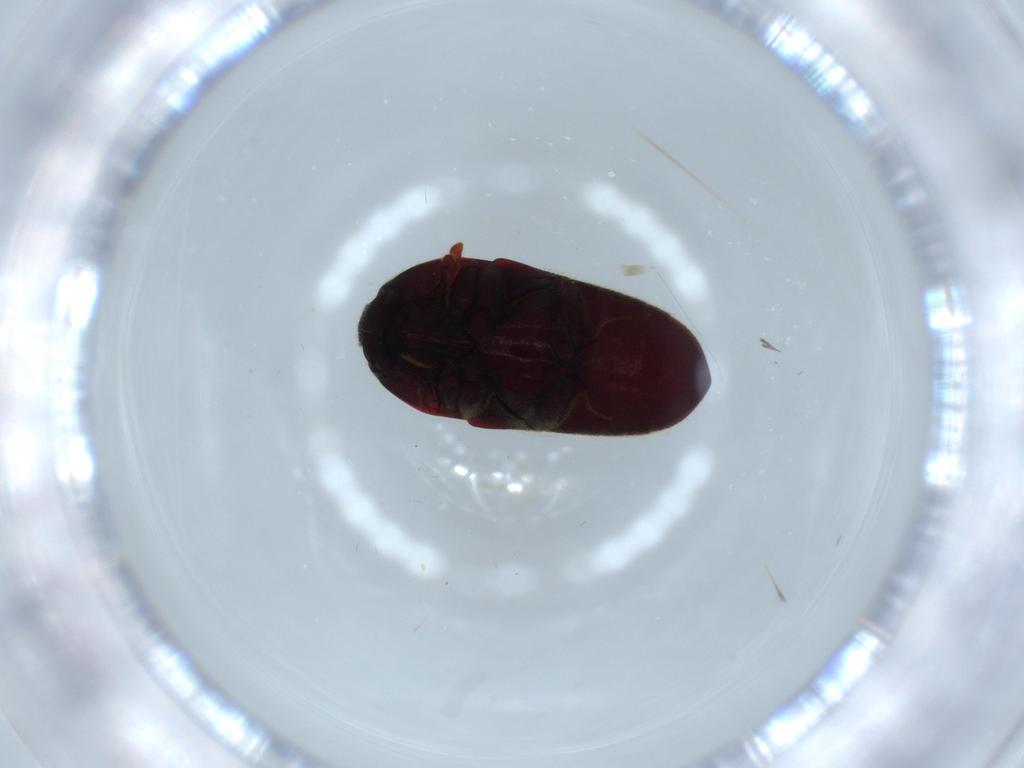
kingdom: Animalia
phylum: Arthropoda
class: Insecta
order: Coleoptera
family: Throscidae
